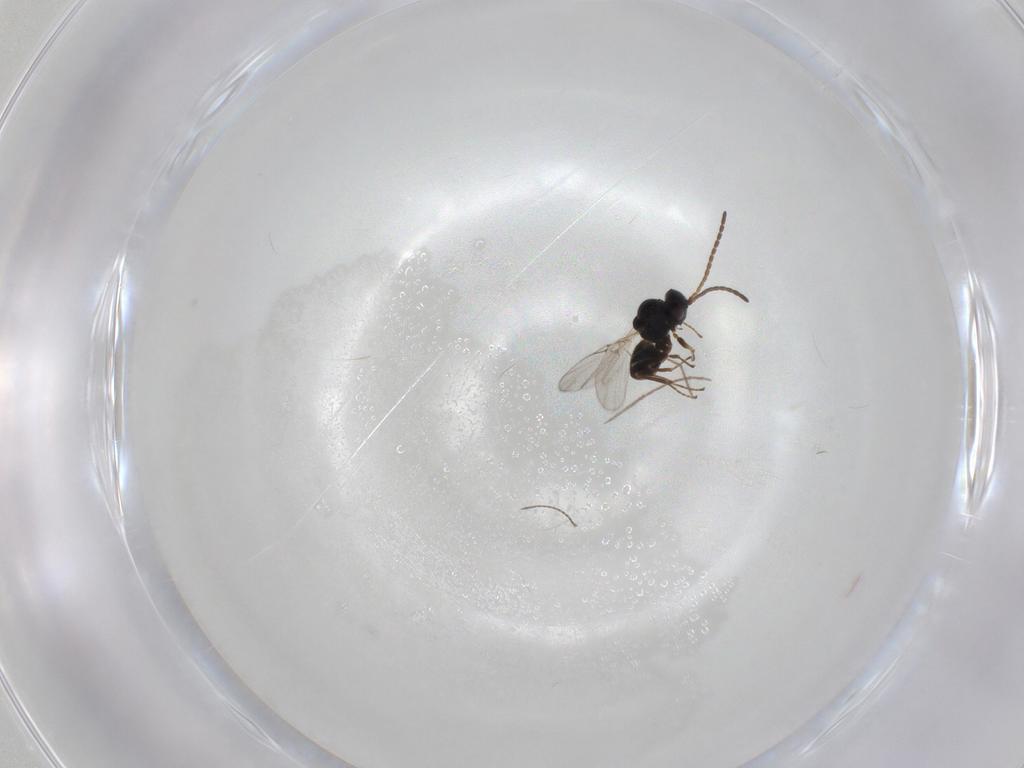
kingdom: Animalia
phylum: Arthropoda
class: Insecta
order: Hymenoptera
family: Figitidae
